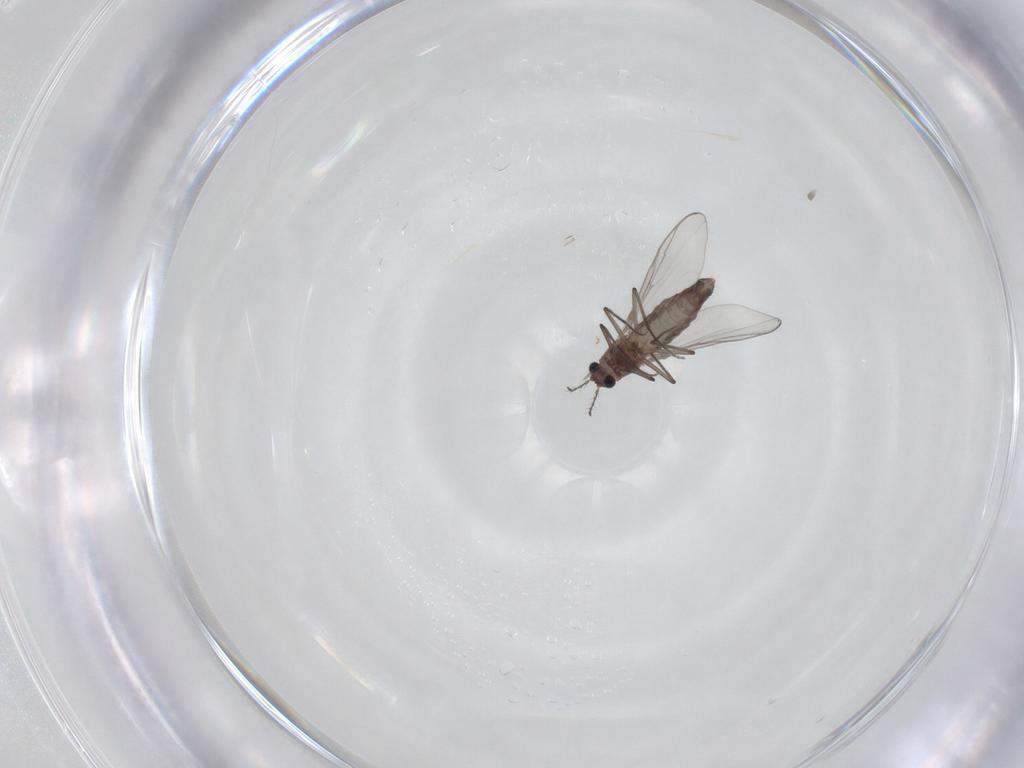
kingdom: Animalia
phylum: Arthropoda
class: Insecta
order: Diptera
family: Chironomidae
